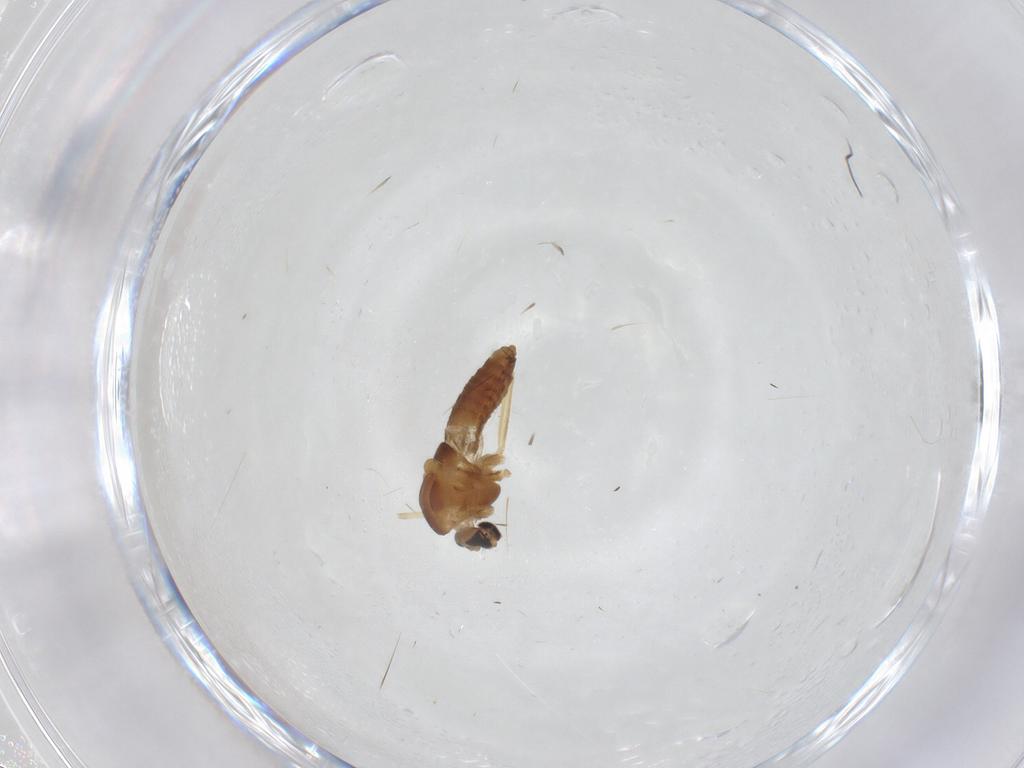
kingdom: Animalia
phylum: Arthropoda
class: Insecta
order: Diptera
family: Chironomidae
